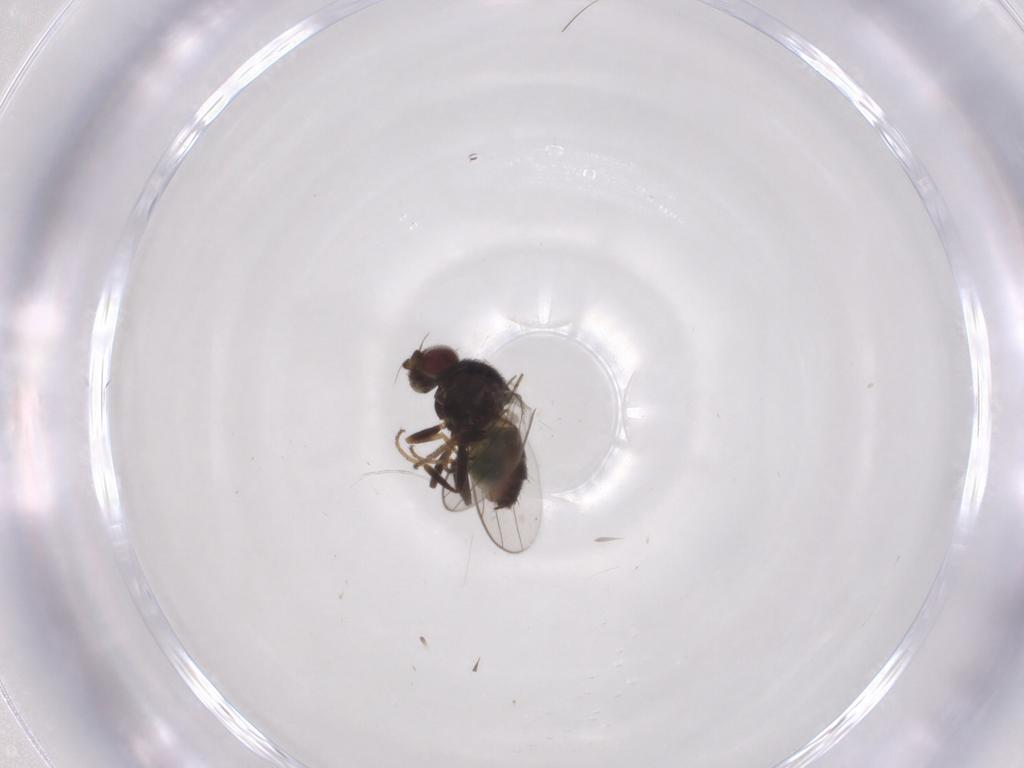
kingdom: Animalia
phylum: Arthropoda
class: Insecta
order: Diptera
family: Chloropidae
